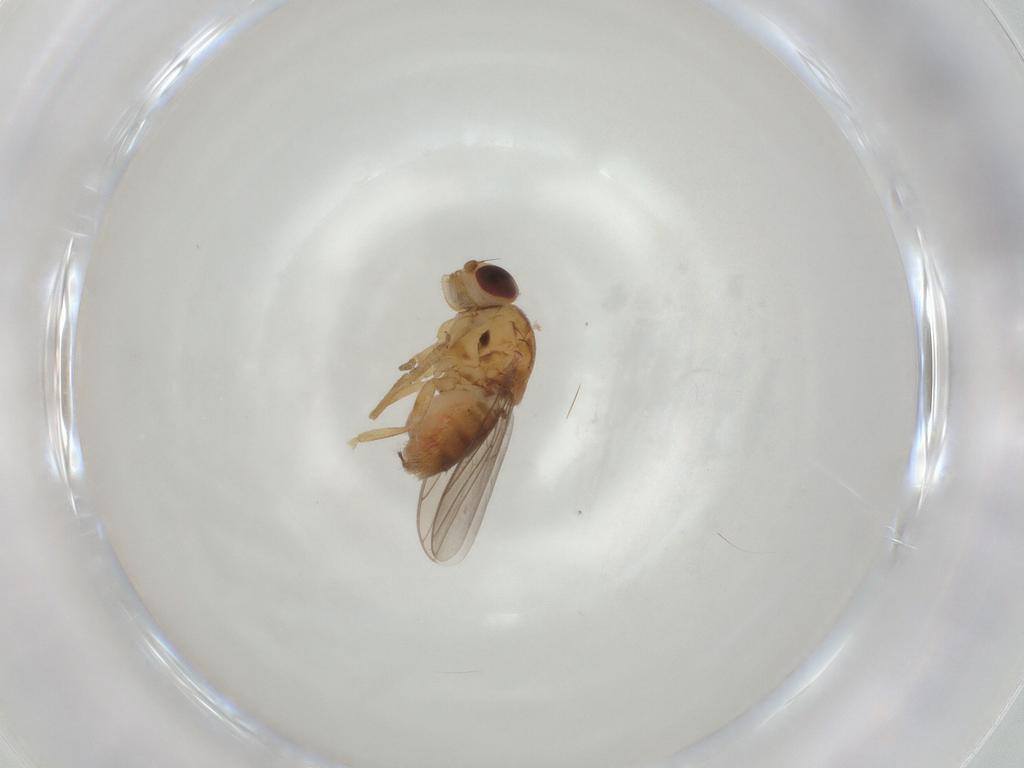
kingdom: Animalia
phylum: Arthropoda
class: Insecta
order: Diptera
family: Chloropidae
